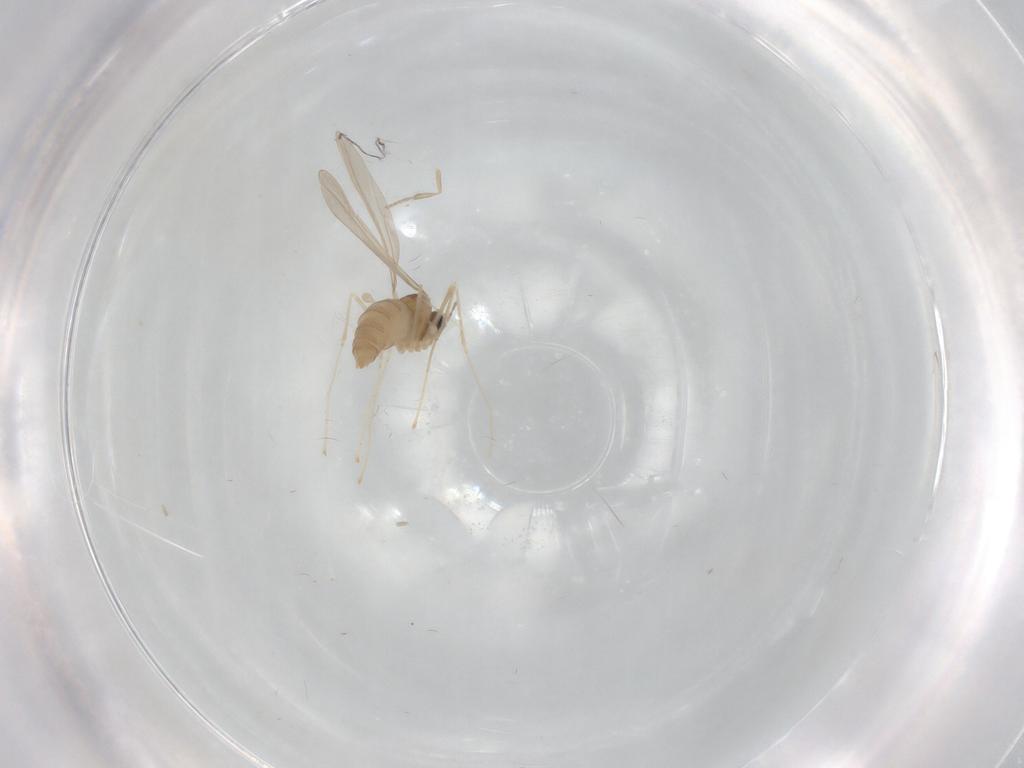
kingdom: Animalia
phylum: Arthropoda
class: Insecta
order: Diptera
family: Cecidomyiidae
